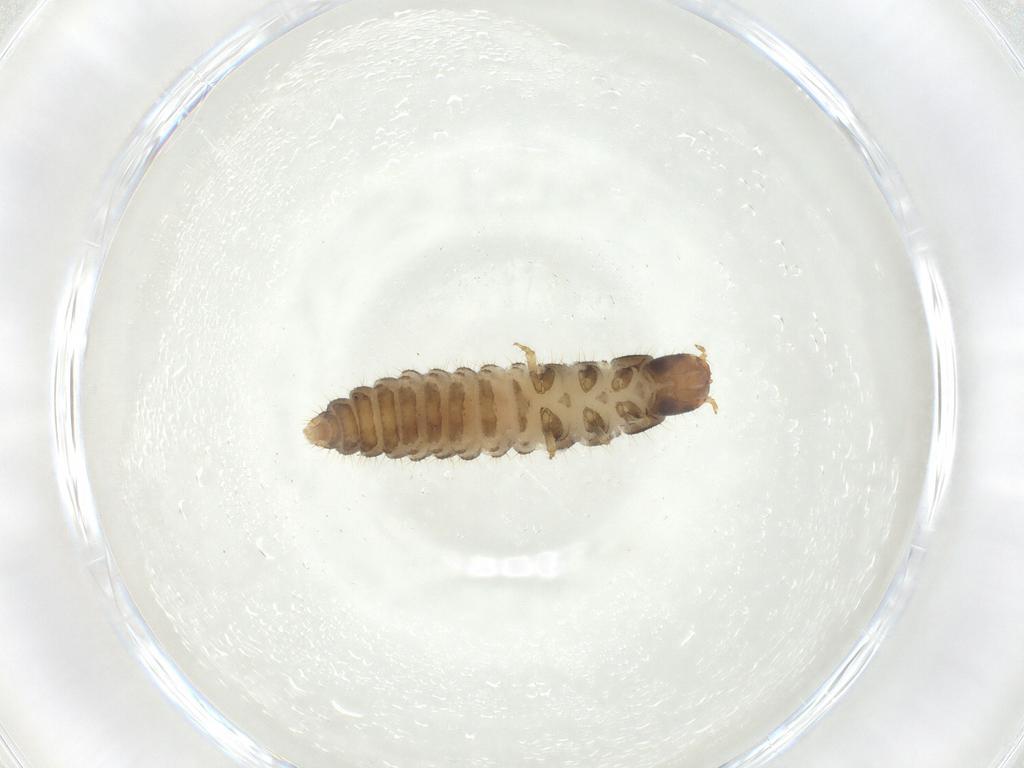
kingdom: Animalia
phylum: Arthropoda
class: Insecta
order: Coleoptera
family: Staphylinidae
